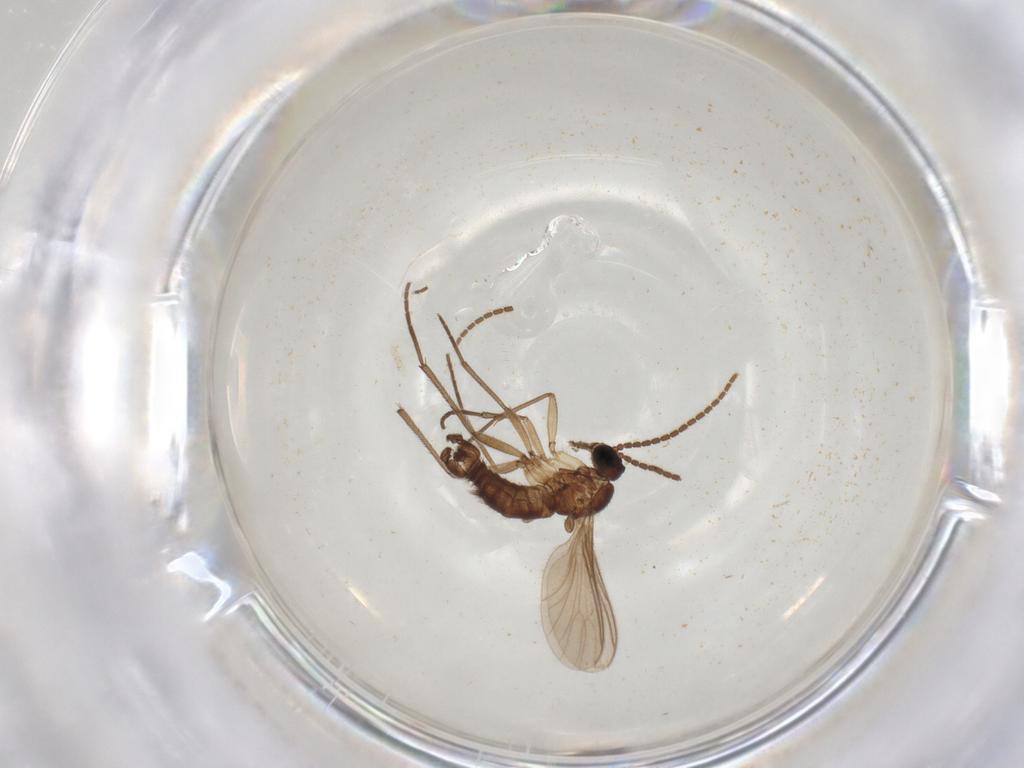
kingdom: Animalia
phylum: Arthropoda
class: Insecta
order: Diptera
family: Sciaridae
